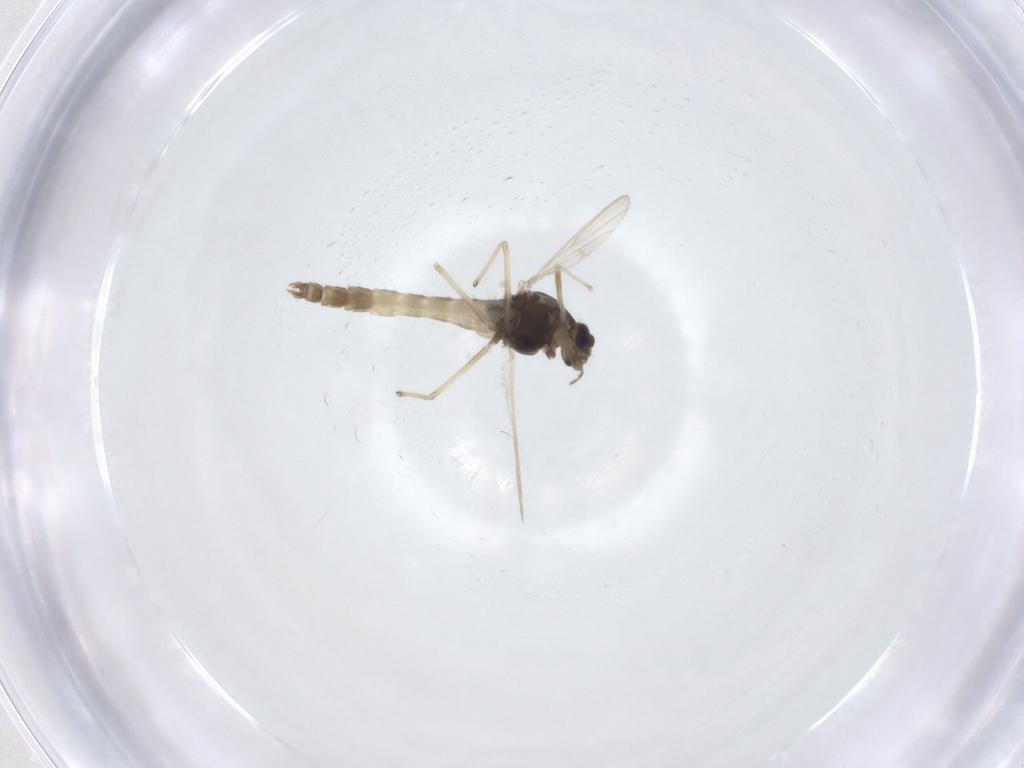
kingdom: Animalia
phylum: Arthropoda
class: Insecta
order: Diptera
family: Chironomidae
